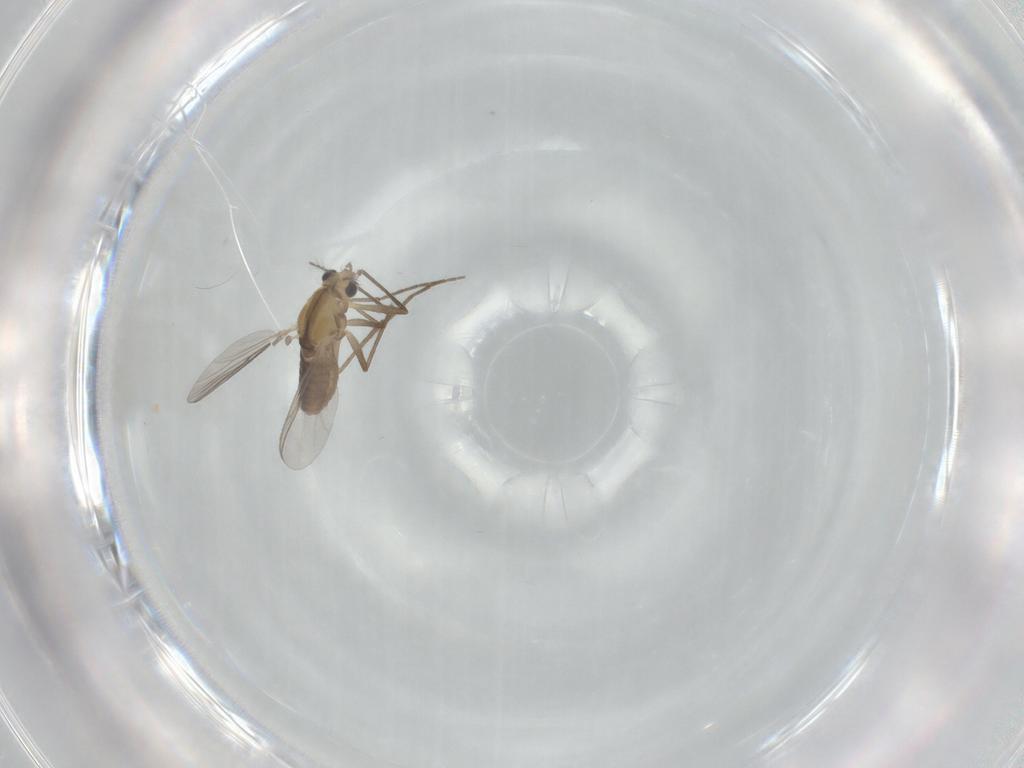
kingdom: Animalia
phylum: Arthropoda
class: Insecta
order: Diptera
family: Chironomidae
